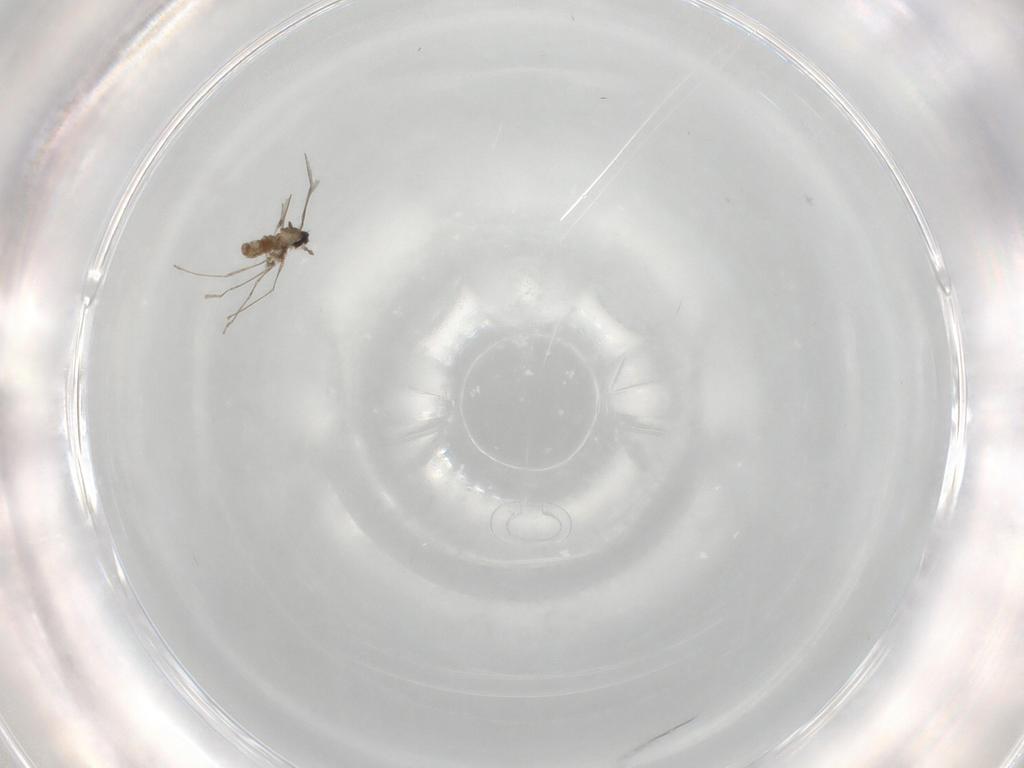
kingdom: Animalia
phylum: Arthropoda
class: Insecta
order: Diptera
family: Cecidomyiidae
